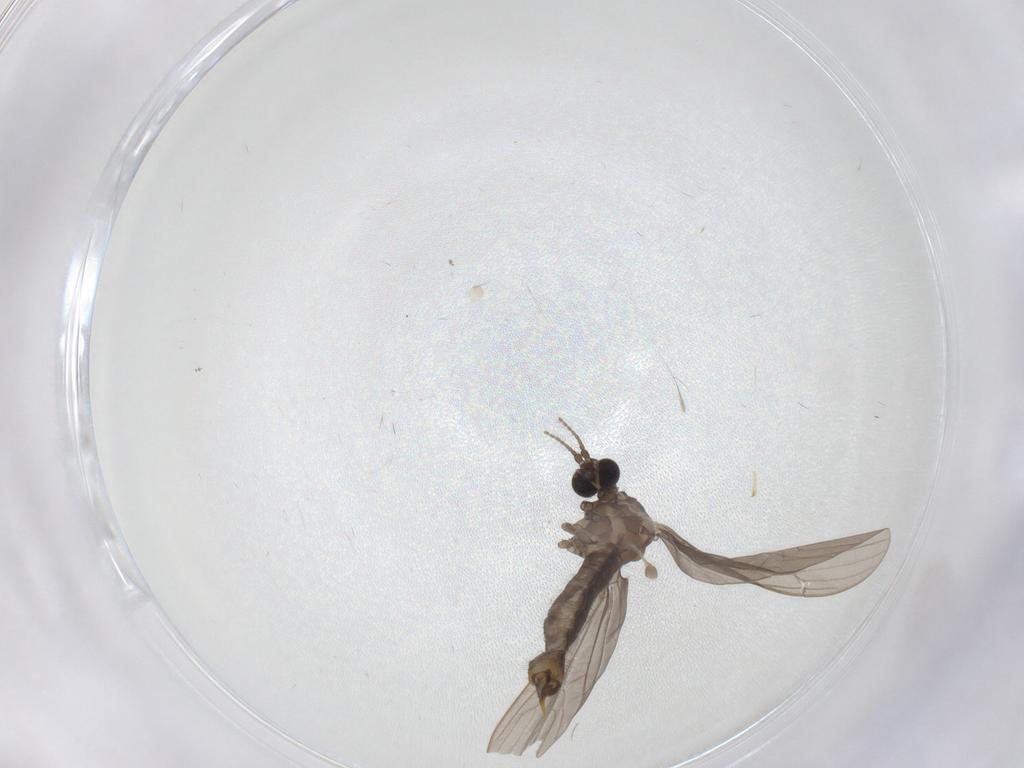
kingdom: Animalia
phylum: Arthropoda
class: Insecta
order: Diptera
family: Limoniidae
